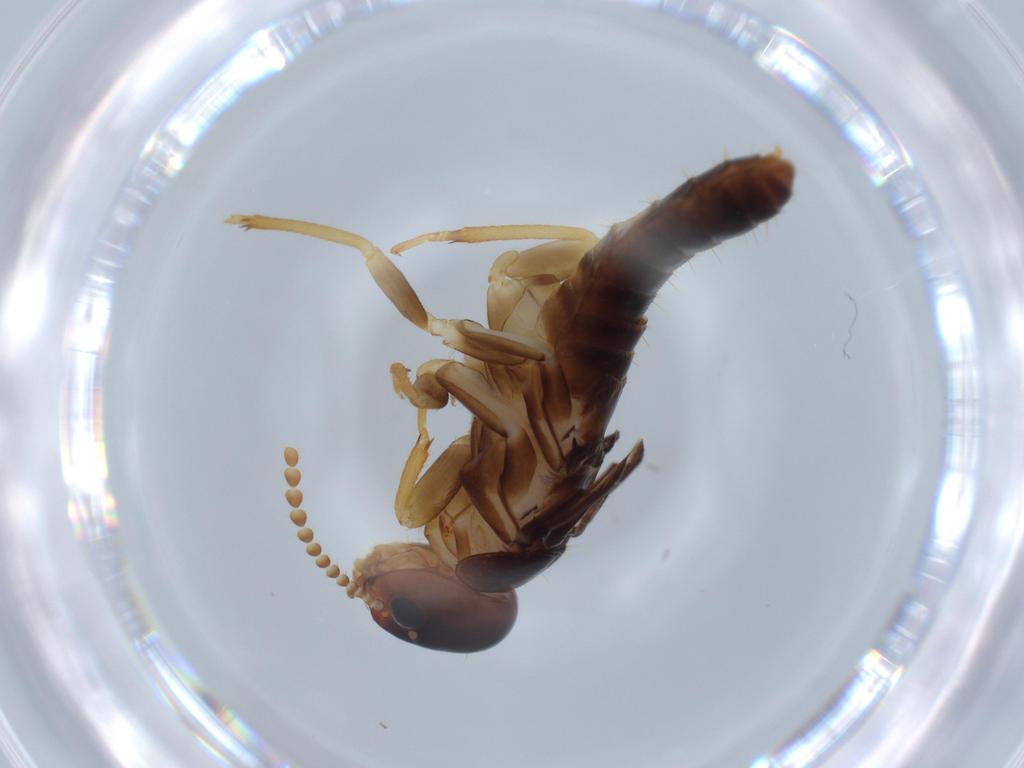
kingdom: Animalia
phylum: Arthropoda
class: Insecta
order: Blattodea
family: Kalotermitidae
